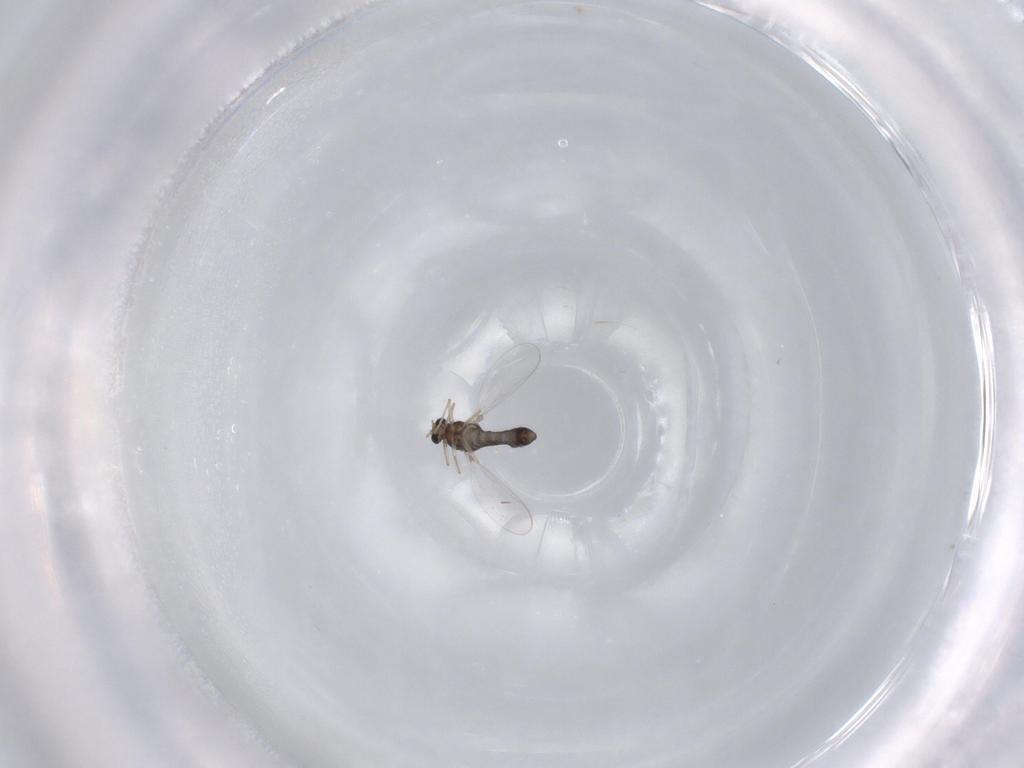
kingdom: Animalia
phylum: Arthropoda
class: Insecta
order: Diptera
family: Chironomidae
